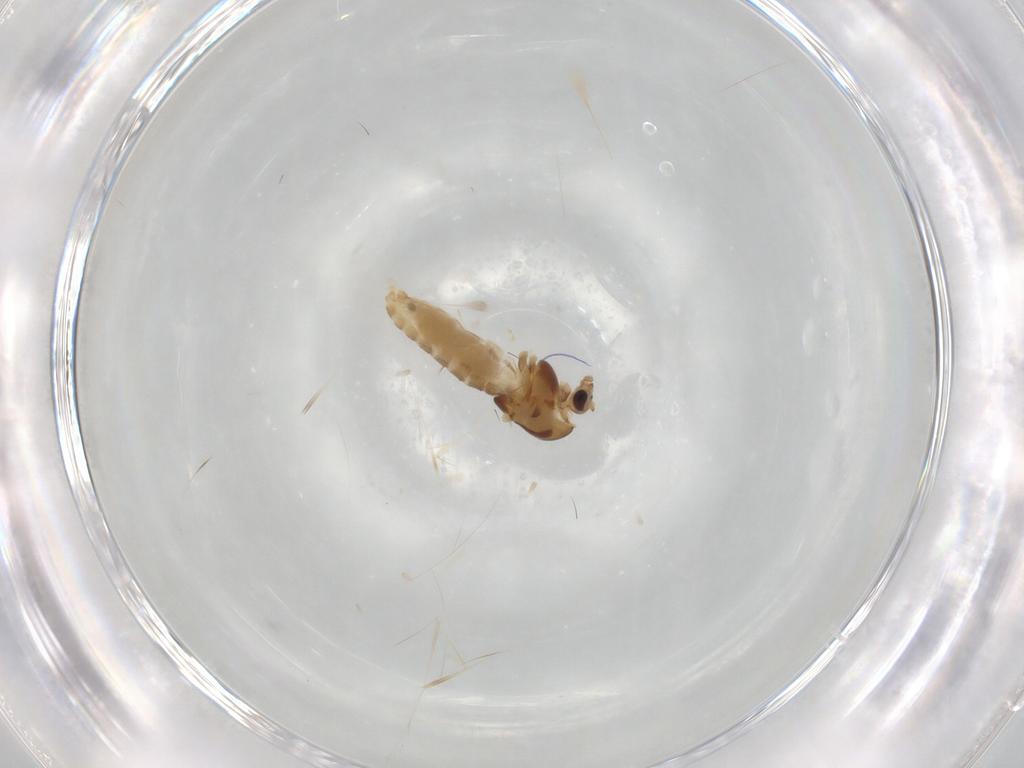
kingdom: Animalia
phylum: Arthropoda
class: Insecta
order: Diptera
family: Chironomidae
